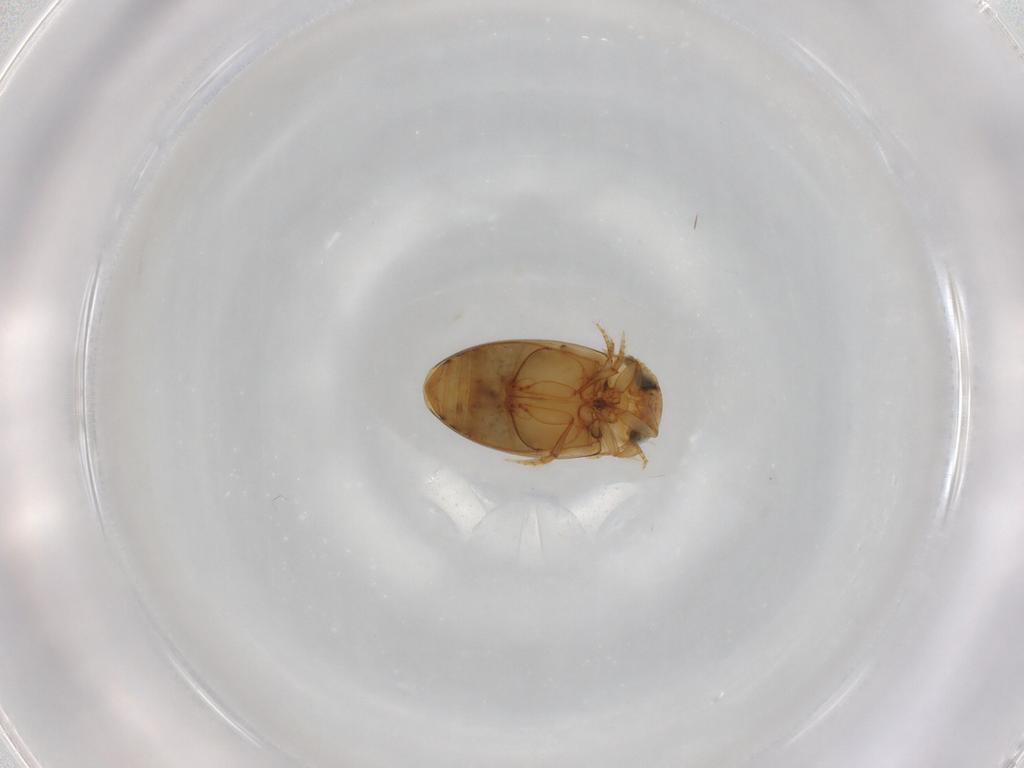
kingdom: Animalia
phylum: Arthropoda
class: Insecta
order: Coleoptera
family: Dytiscidae
